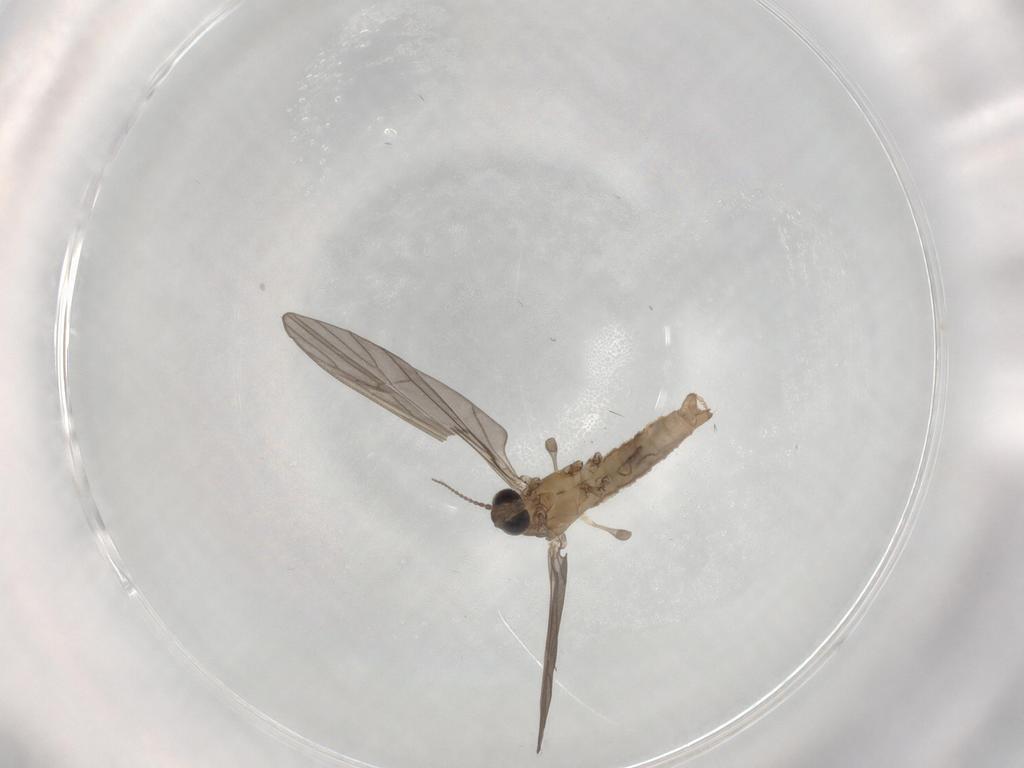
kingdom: Animalia
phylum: Arthropoda
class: Insecta
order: Diptera
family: Limoniidae
